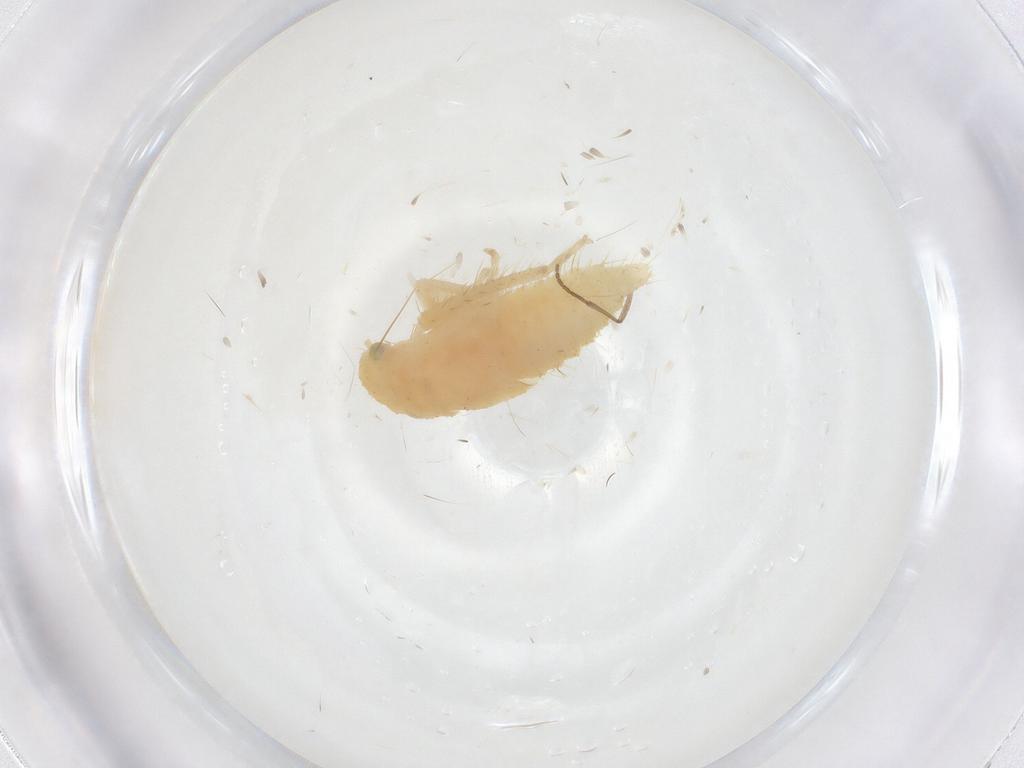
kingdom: Animalia
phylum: Arthropoda
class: Insecta
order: Hemiptera
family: Cicadellidae
